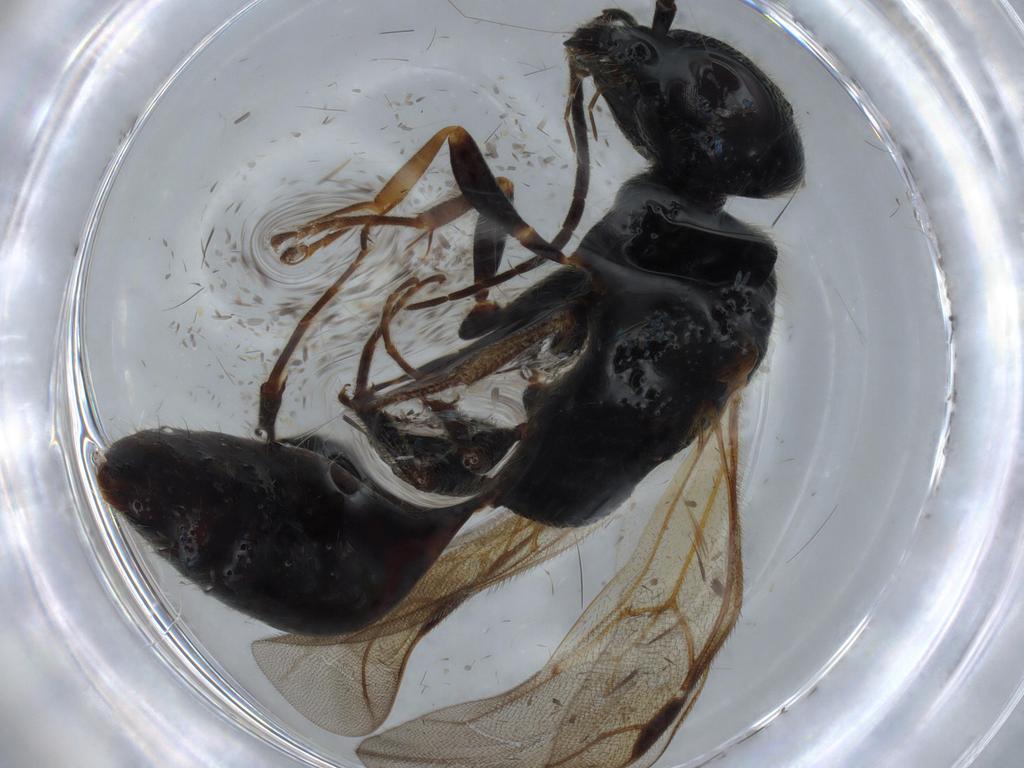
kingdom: Animalia
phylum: Arthropoda
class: Insecta
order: Hymenoptera
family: Bethylidae
